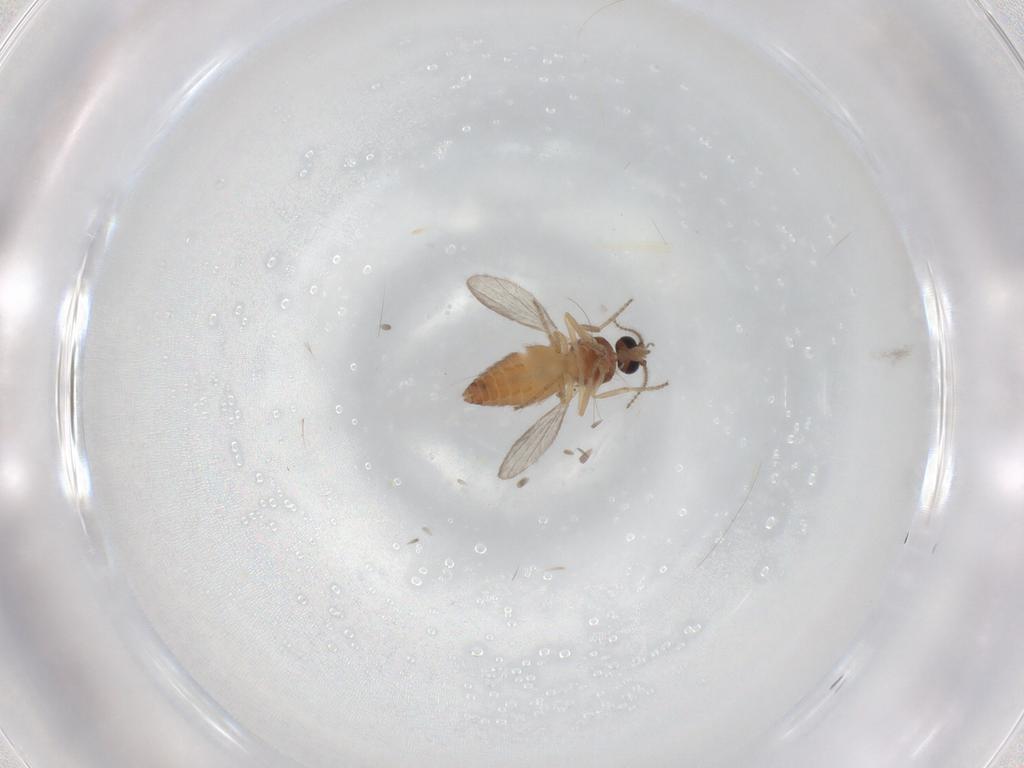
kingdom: Animalia
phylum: Arthropoda
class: Insecta
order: Diptera
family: Ceratopogonidae
